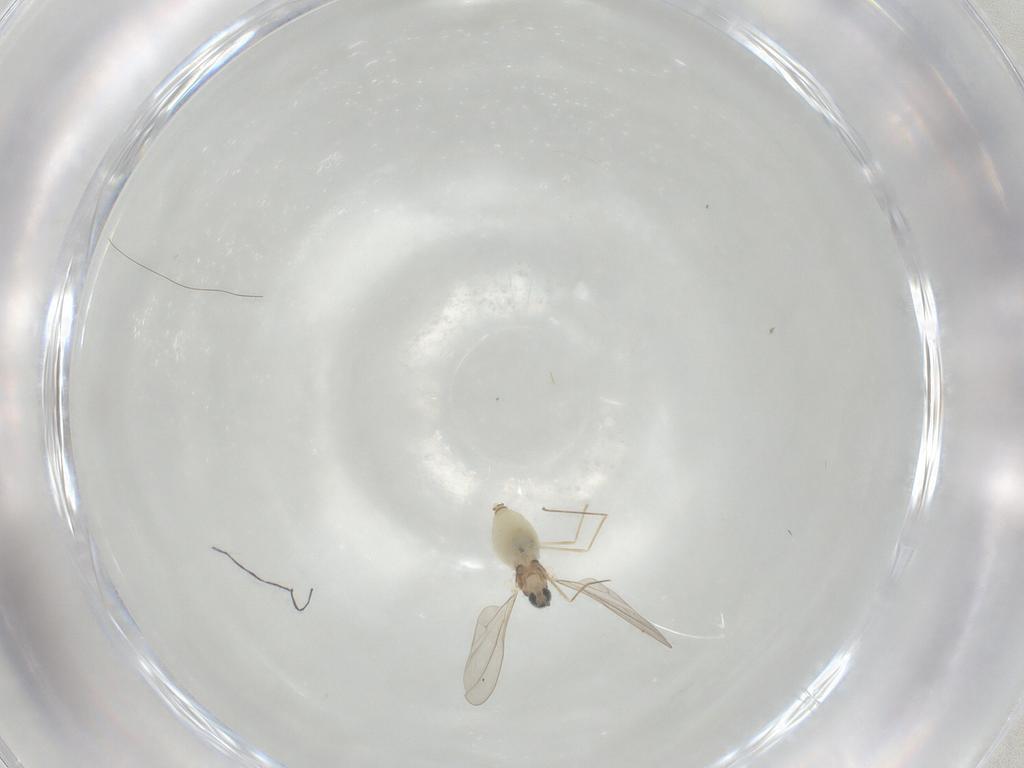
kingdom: Animalia
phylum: Arthropoda
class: Insecta
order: Diptera
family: Cecidomyiidae
